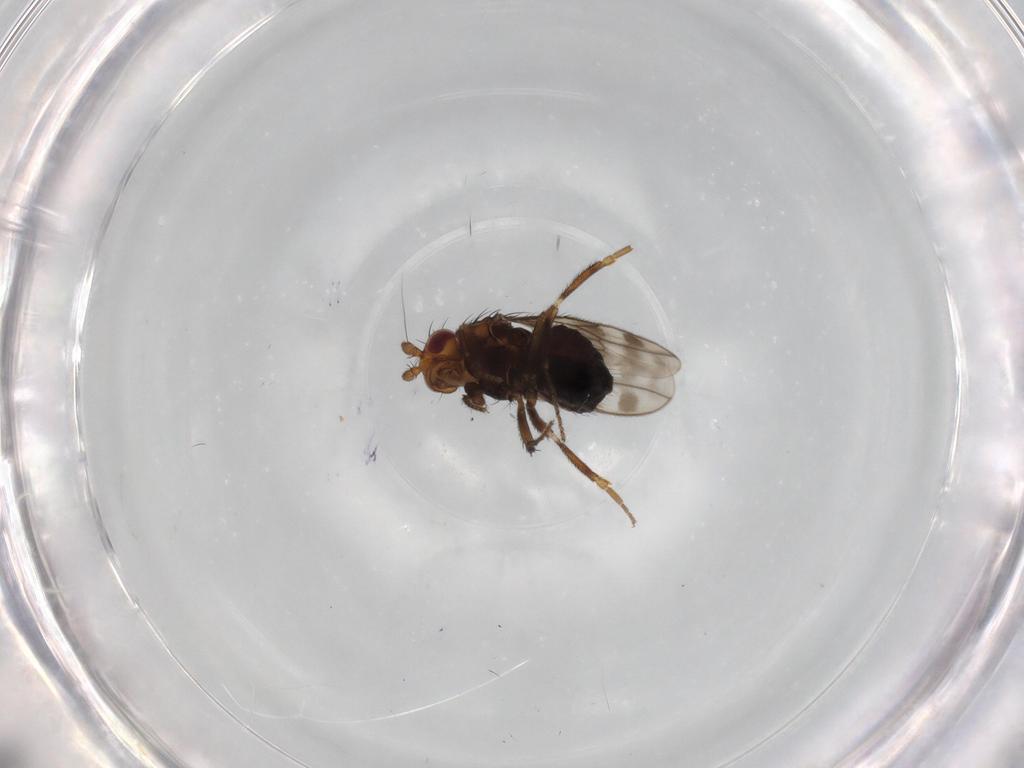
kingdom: Animalia
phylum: Arthropoda
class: Insecta
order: Diptera
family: Sphaeroceridae
